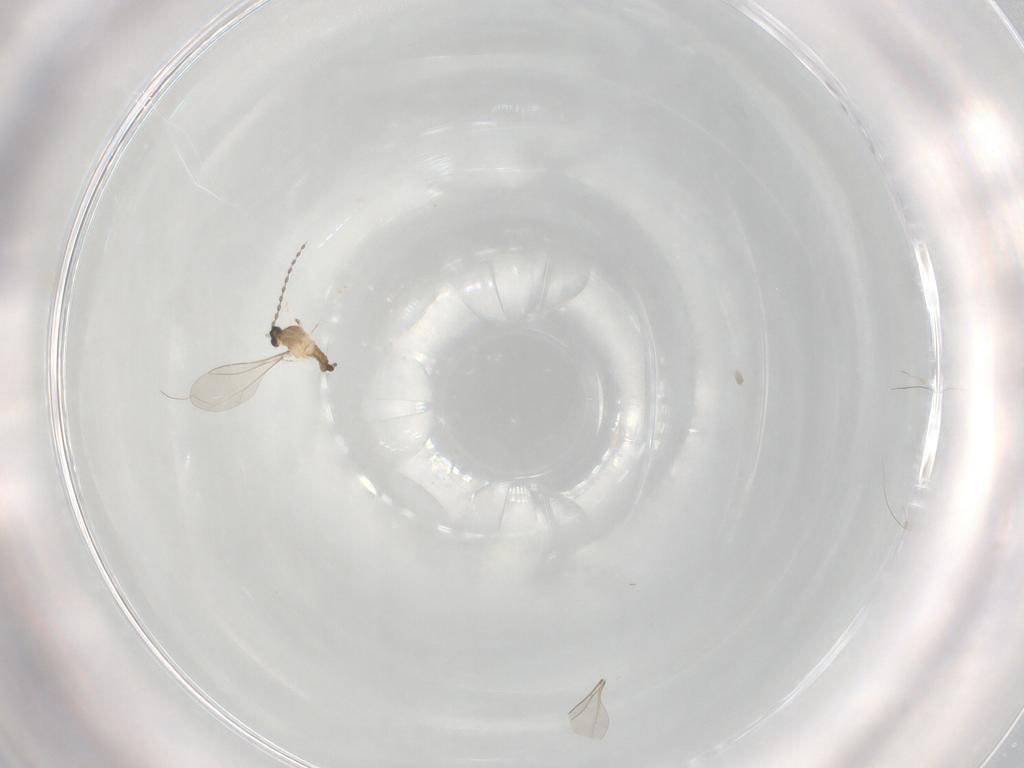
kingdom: Animalia
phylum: Arthropoda
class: Insecta
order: Diptera
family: Cecidomyiidae
